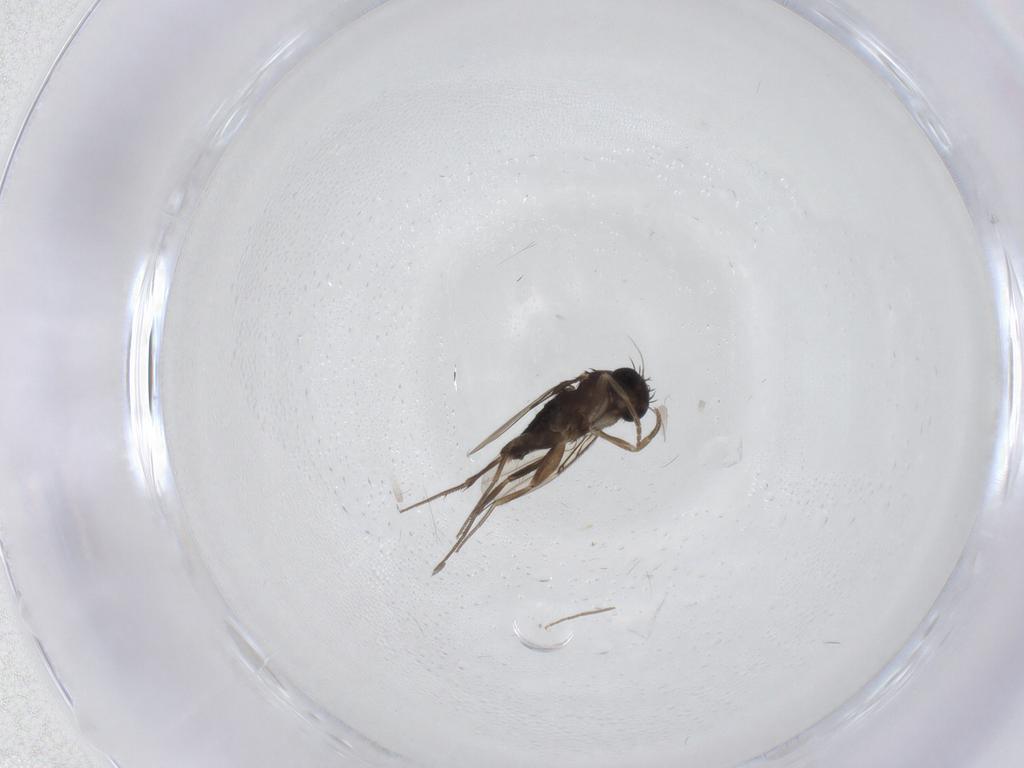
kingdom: Animalia
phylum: Arthropoda
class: Insecta
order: Diptera
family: Phoridae
